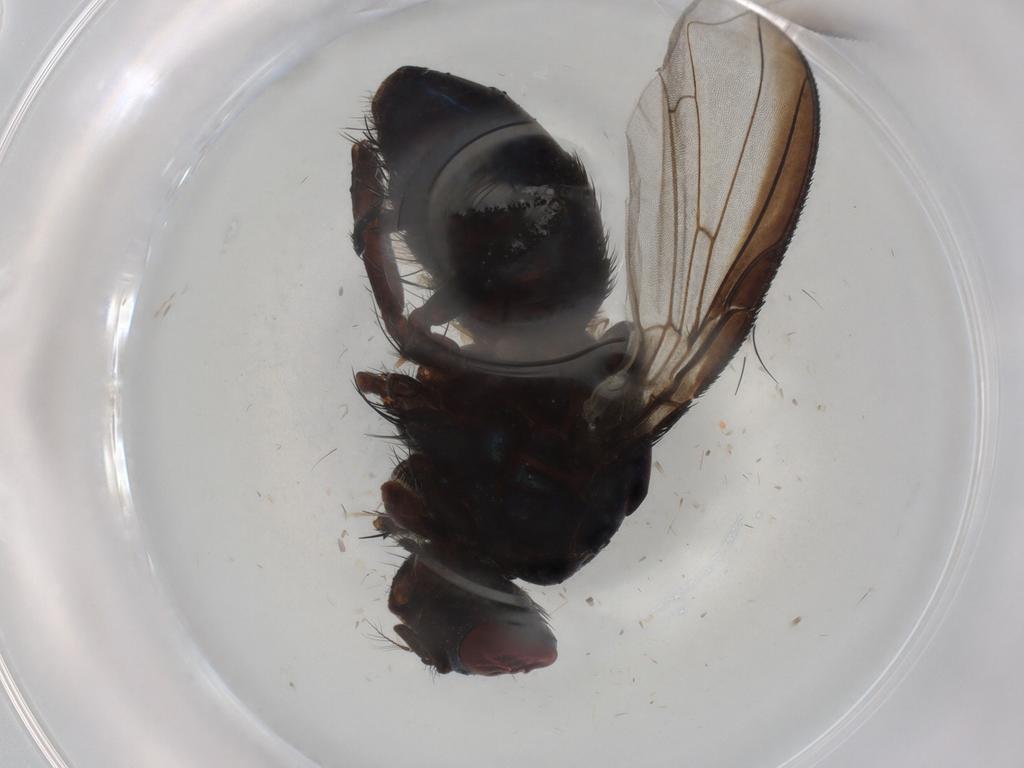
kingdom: Animalia
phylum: Arthropoda
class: Insecta
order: Diptera
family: Calliphoridae
